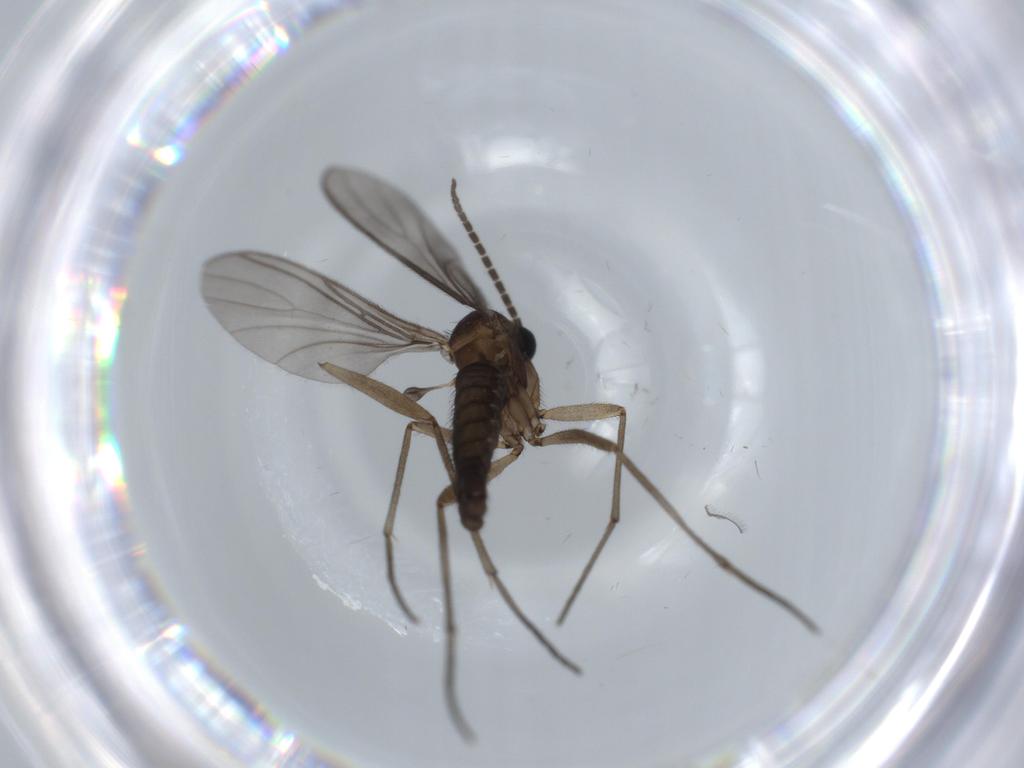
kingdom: Animalia
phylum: Arthropoda
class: Insecta
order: Diptera
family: Sciaridae
